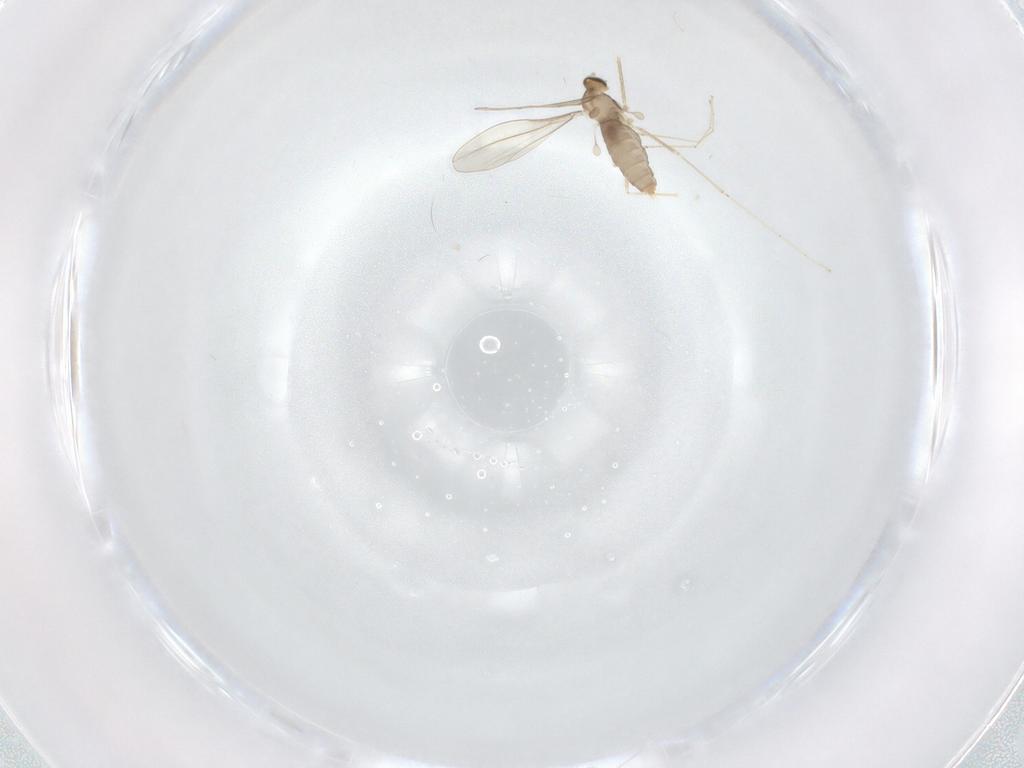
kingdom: Animalia
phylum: Arthropoda
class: Insecta
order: Diptera
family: Cecidomyiidae
